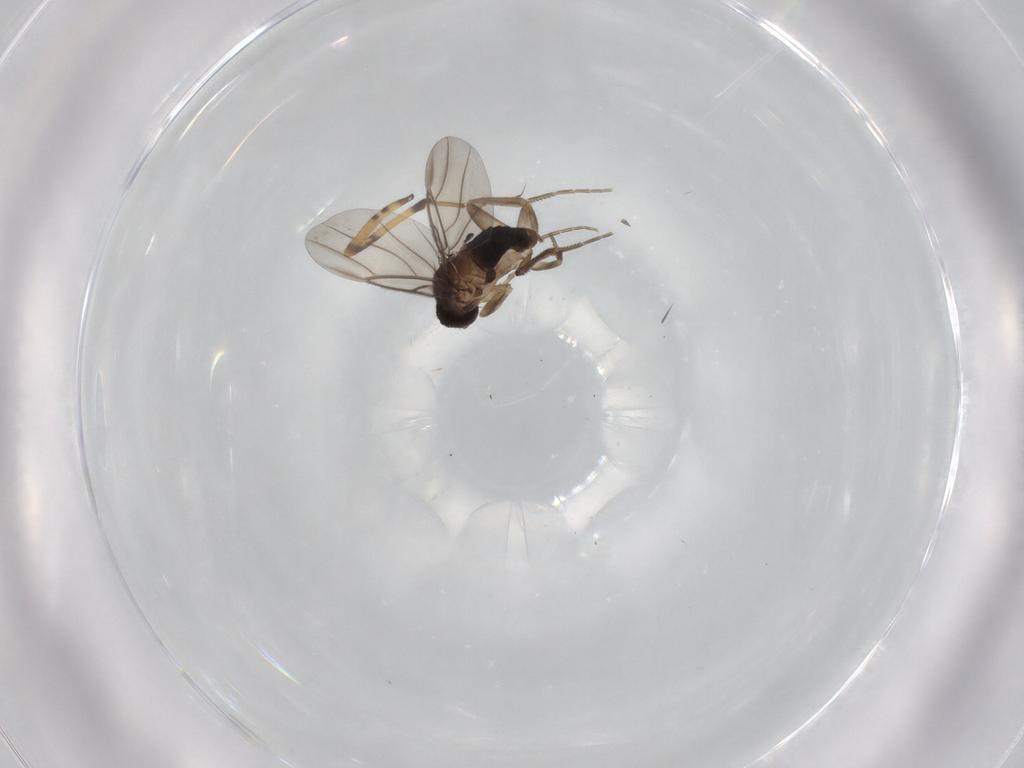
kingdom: Animalia
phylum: Arthropoda
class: Insecta
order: Diptera
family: Phoridae
